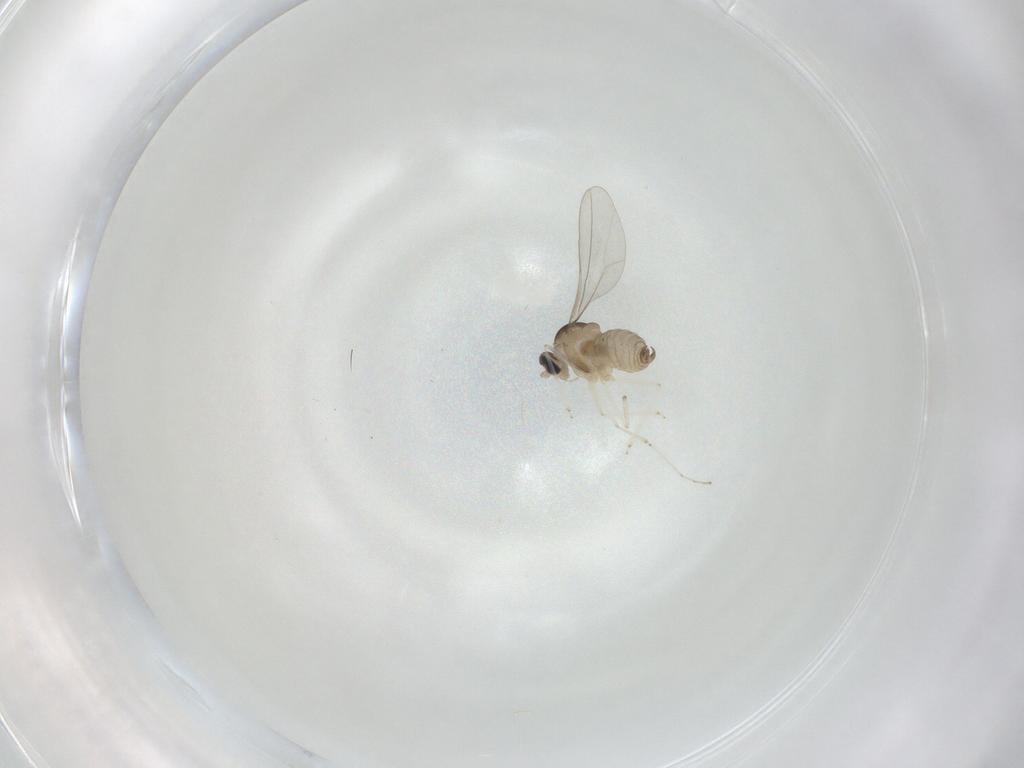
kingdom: Animalia
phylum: Arthropoda
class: Insecta
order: Diptera
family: Cecidomyiidae
